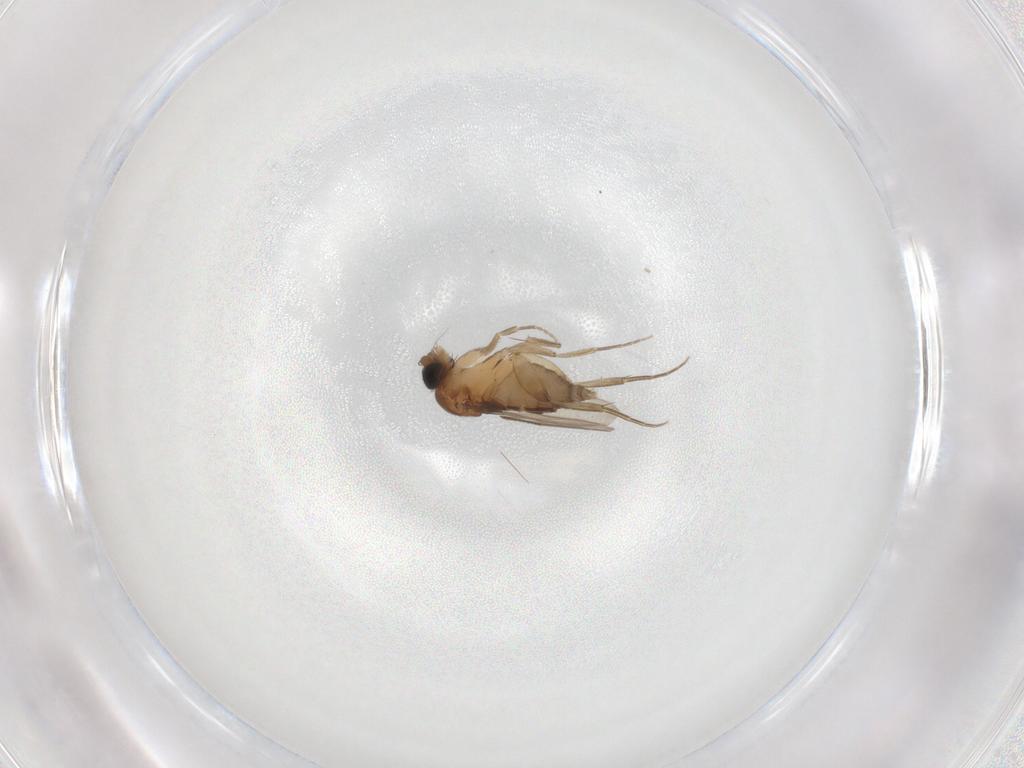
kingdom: Animalia
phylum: Arthropoda
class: Insecta
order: Diptera
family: Phoridae
